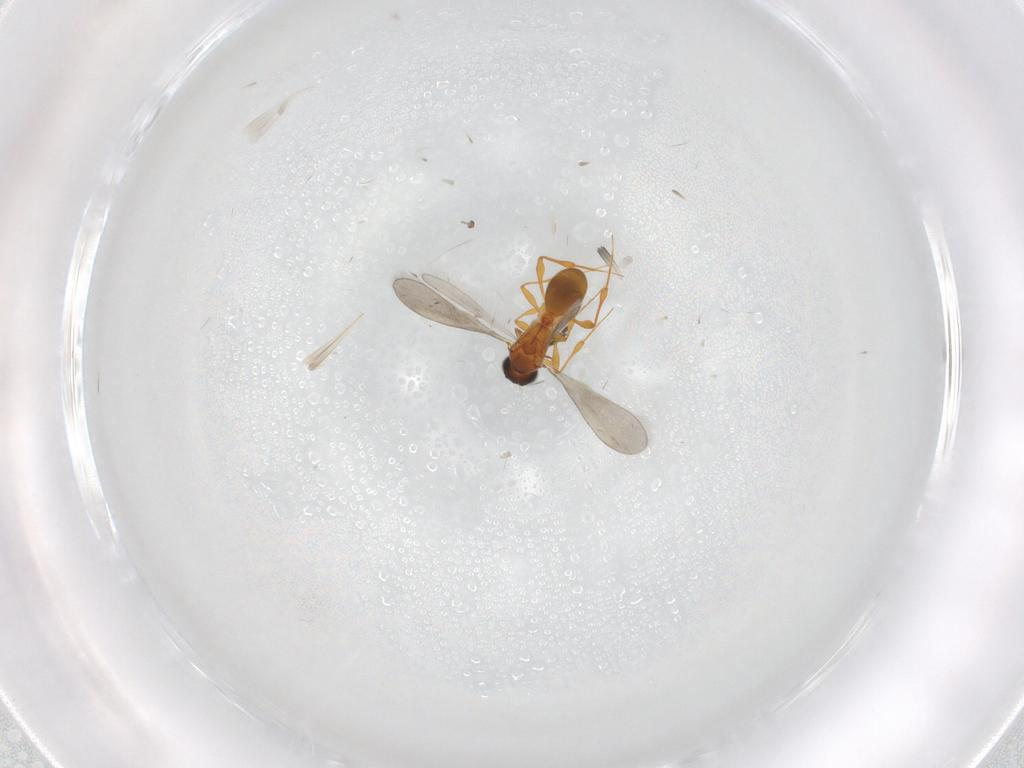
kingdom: Animalia
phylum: Arthropoda
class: Insecta
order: Hymenoptera
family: Platygastridae
